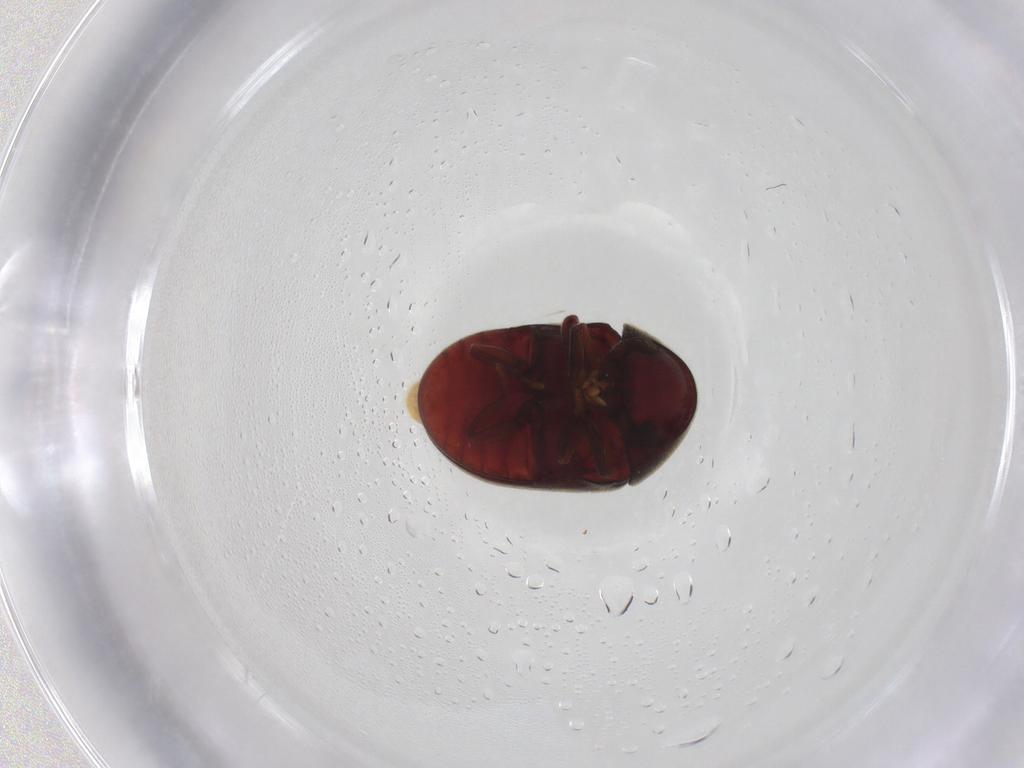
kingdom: Animalia
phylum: Arthropoda
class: Insecta
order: Coleoptera
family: Ptinidae
